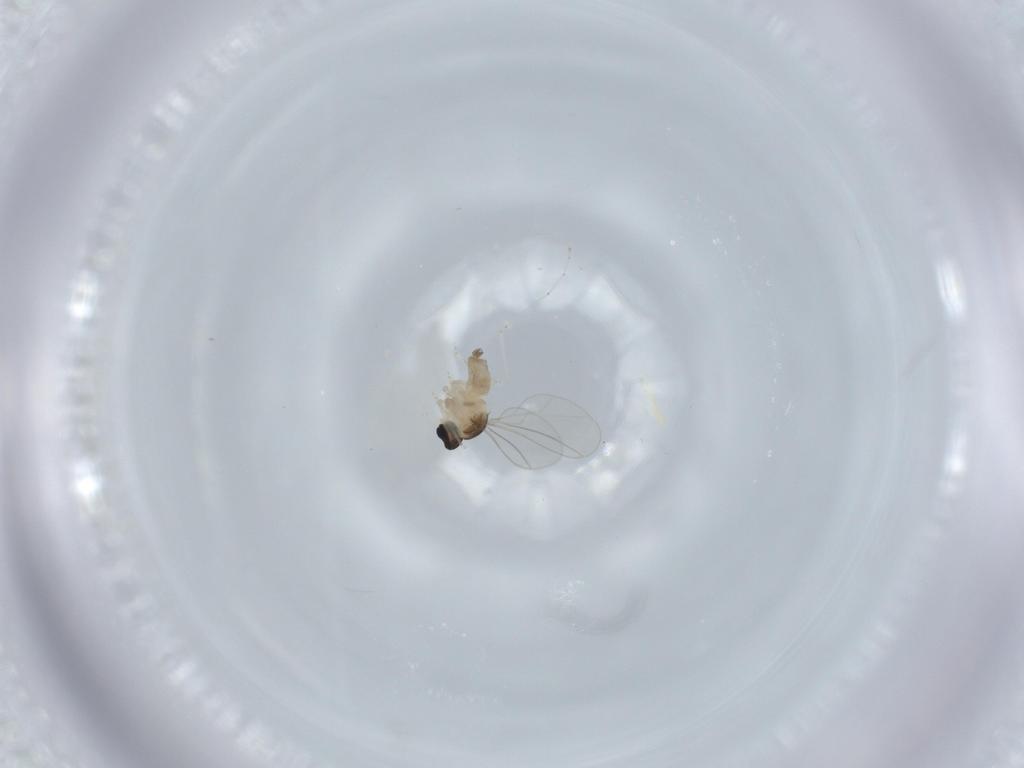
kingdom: Animalia
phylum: Arthropoda
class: Insecta
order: Diptera
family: Cecidomyiidae
